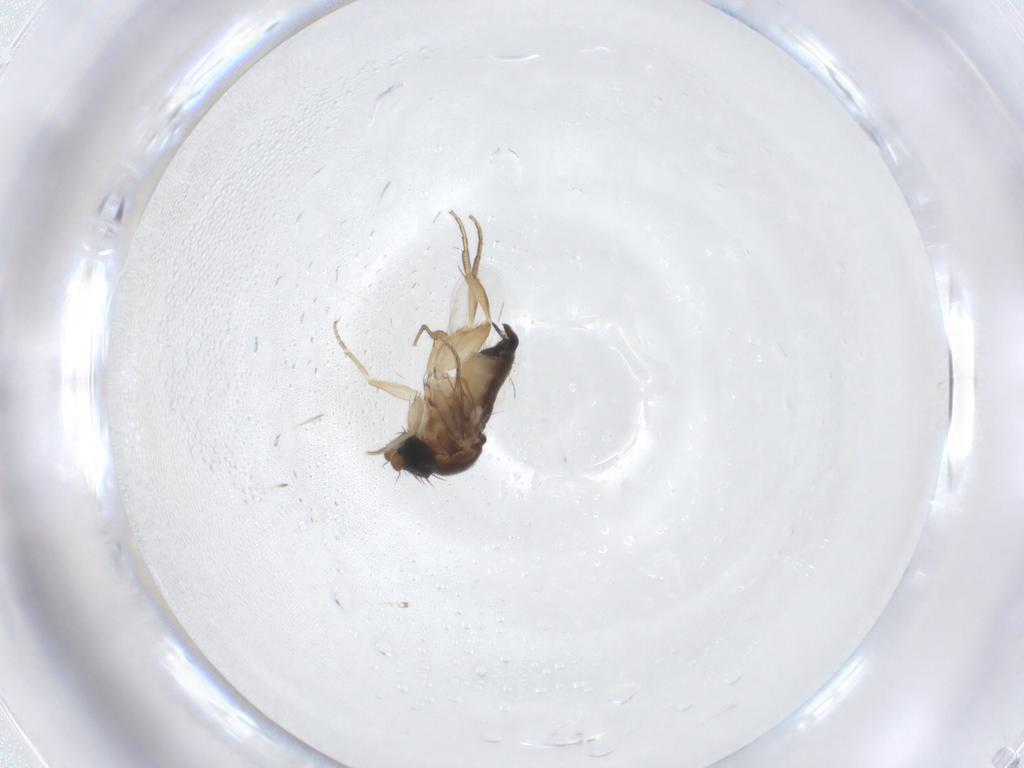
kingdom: Animalia
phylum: Arthropoda
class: Insecta
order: Diptera
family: Phoridae
